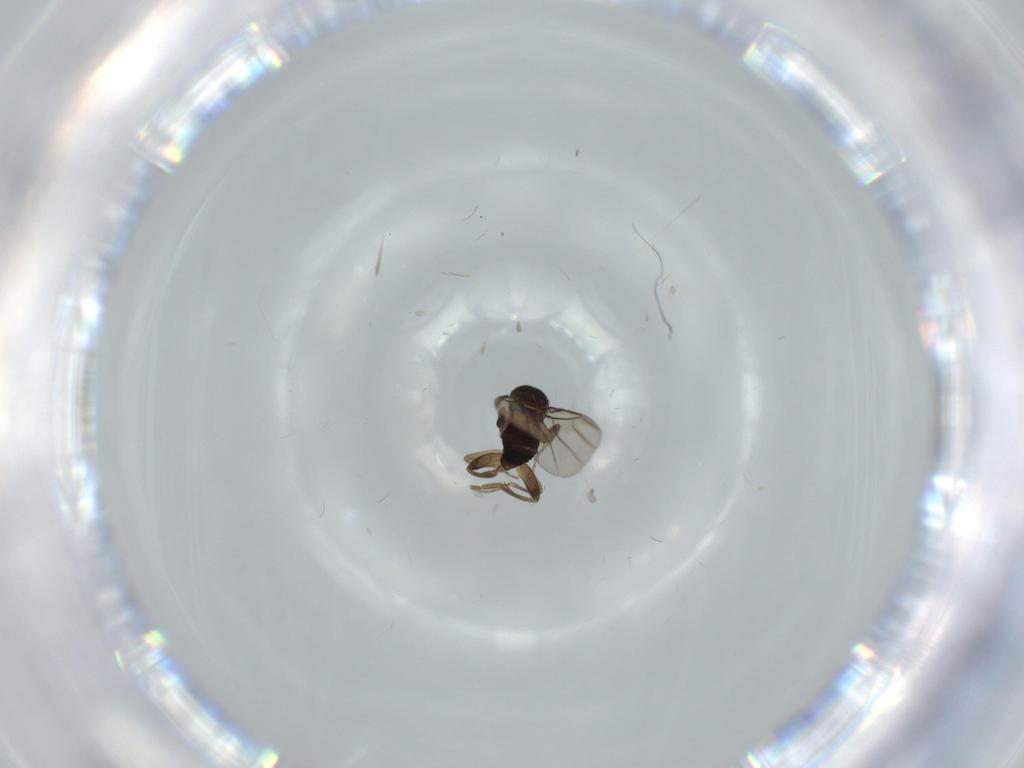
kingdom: Animalia
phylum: Arthropoda
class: Insecta
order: Diptera
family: Phoridae
